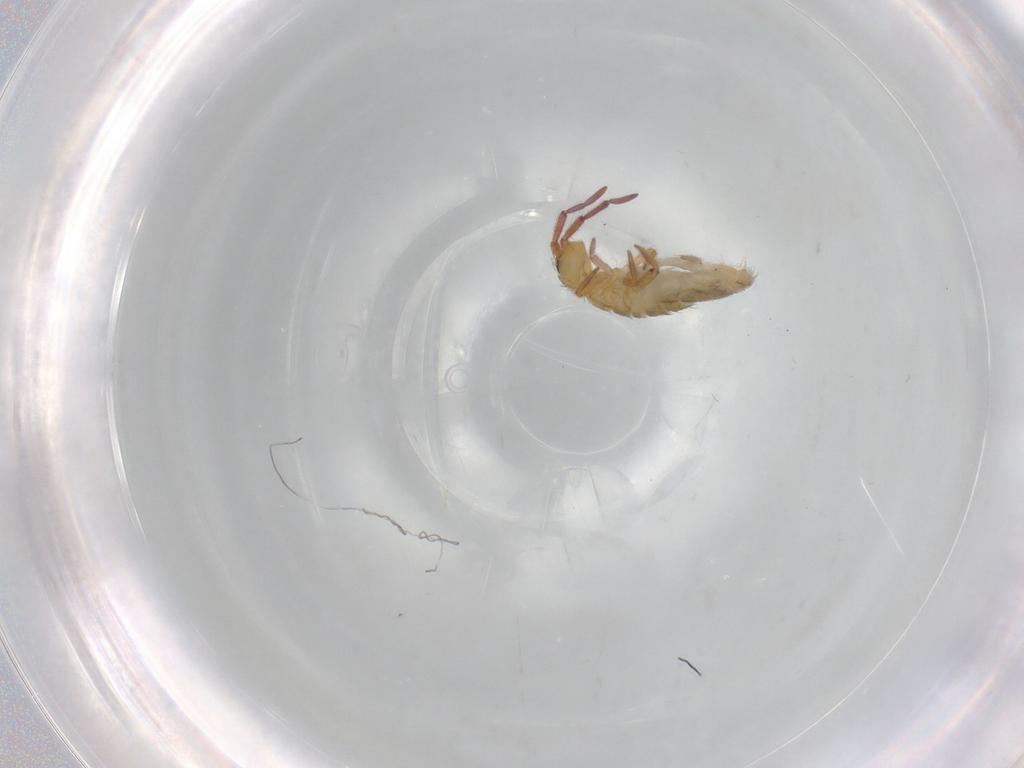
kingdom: Animalia
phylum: Arthropoda
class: Collembola
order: Entomobryomorpha
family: Entomobryidae
